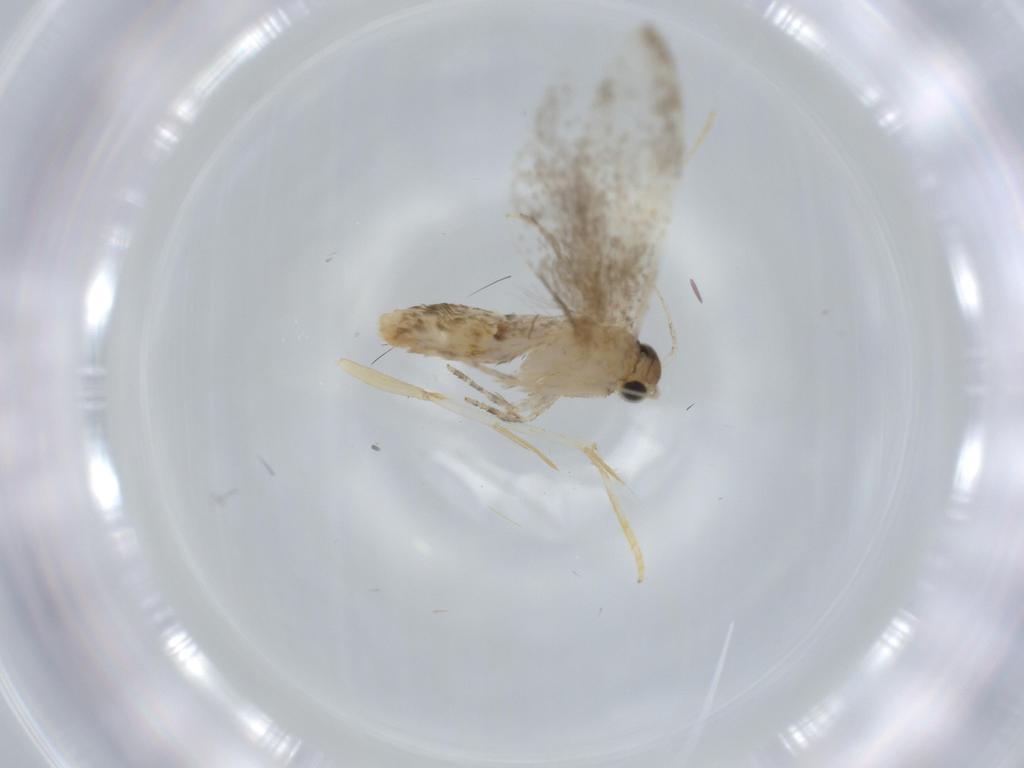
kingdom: Animalia
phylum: Arthropoda
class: Insecta
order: Lepidoptera
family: Tineidae
